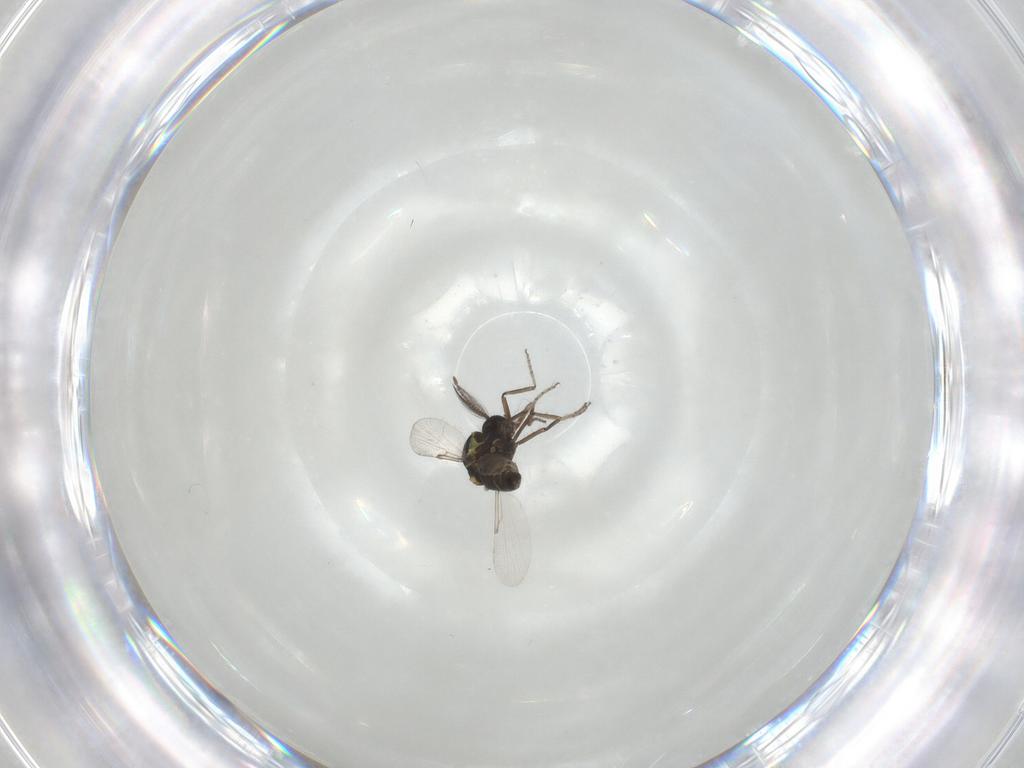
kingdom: Animalia
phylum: Arthropoda
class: Insecta
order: Diptera
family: Ceratopogonidae
